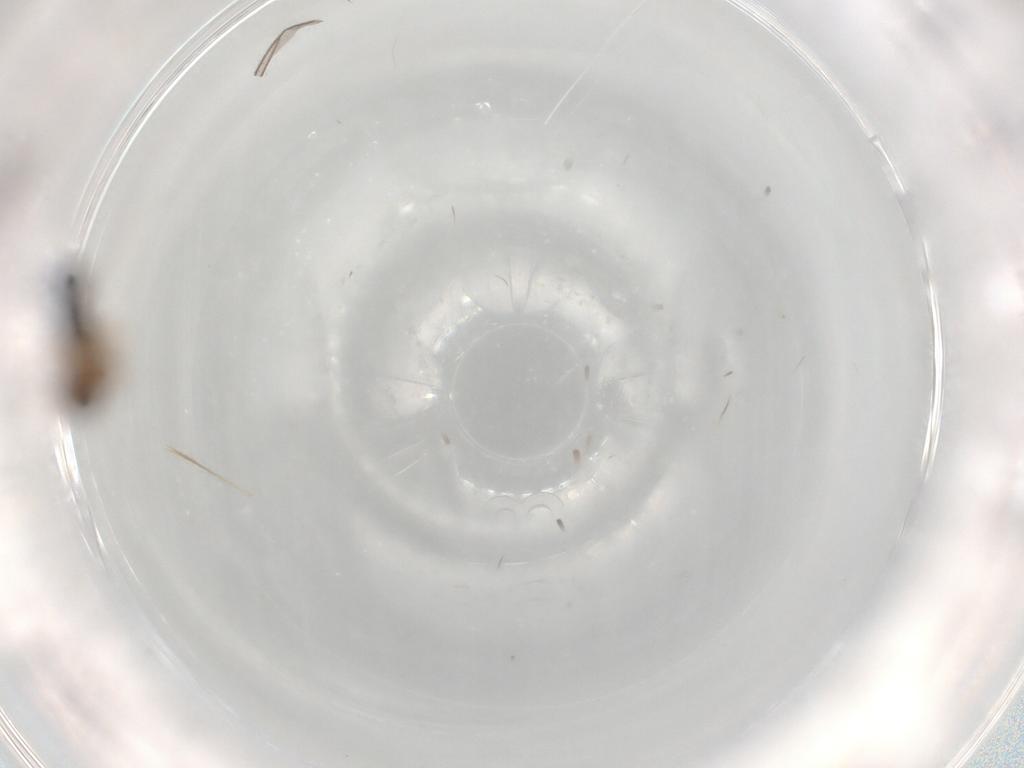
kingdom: Animalia
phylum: Arthropoda
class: Insecta
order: Hymenoptera
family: Braconidae
